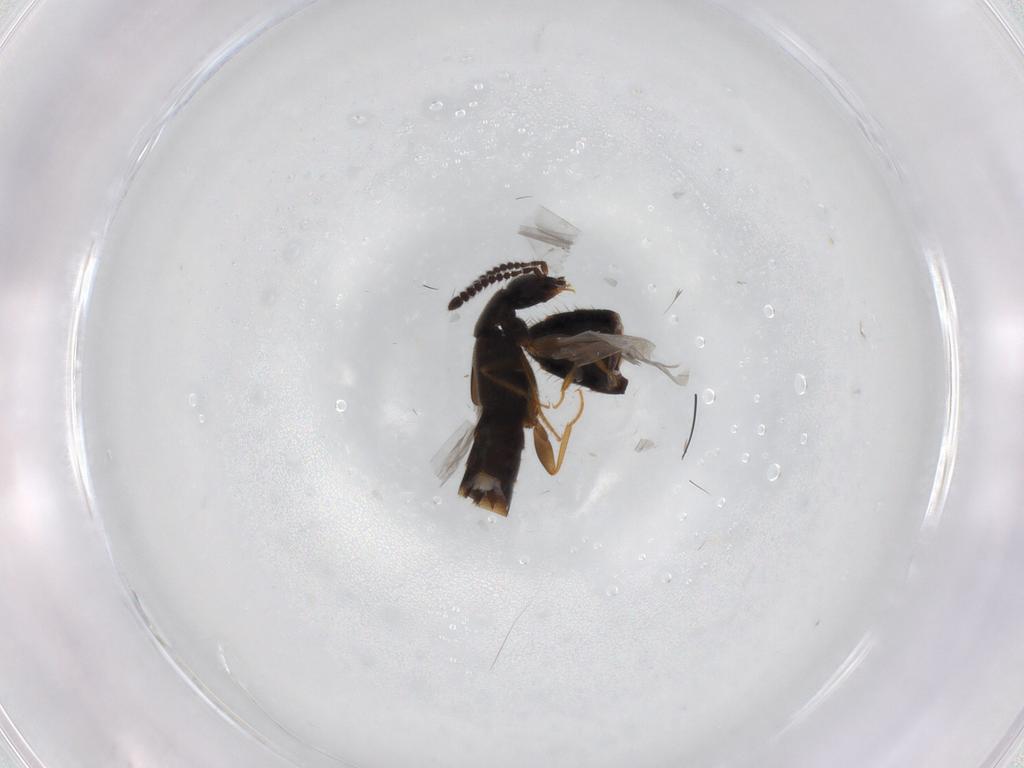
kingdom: Animalia
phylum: Arthropoda
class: Insecta
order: Coleoptera
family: Staphylinidae
